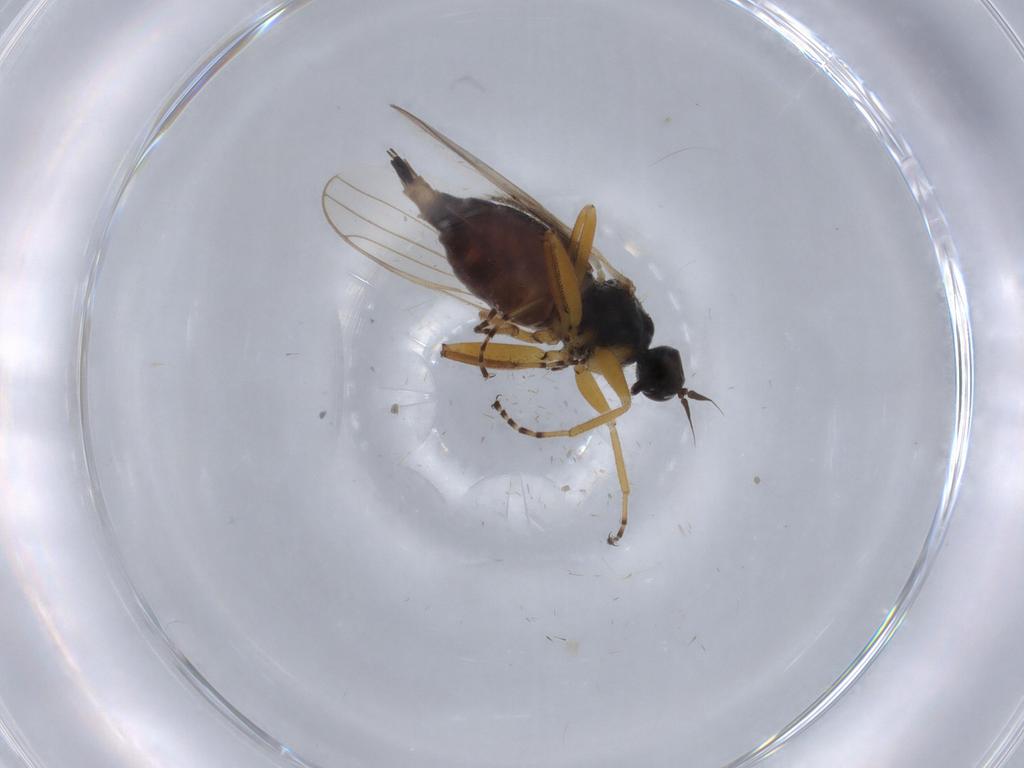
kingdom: Animalia
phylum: Arthropoda
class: Insecta
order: Diptera
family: Hybotidae
